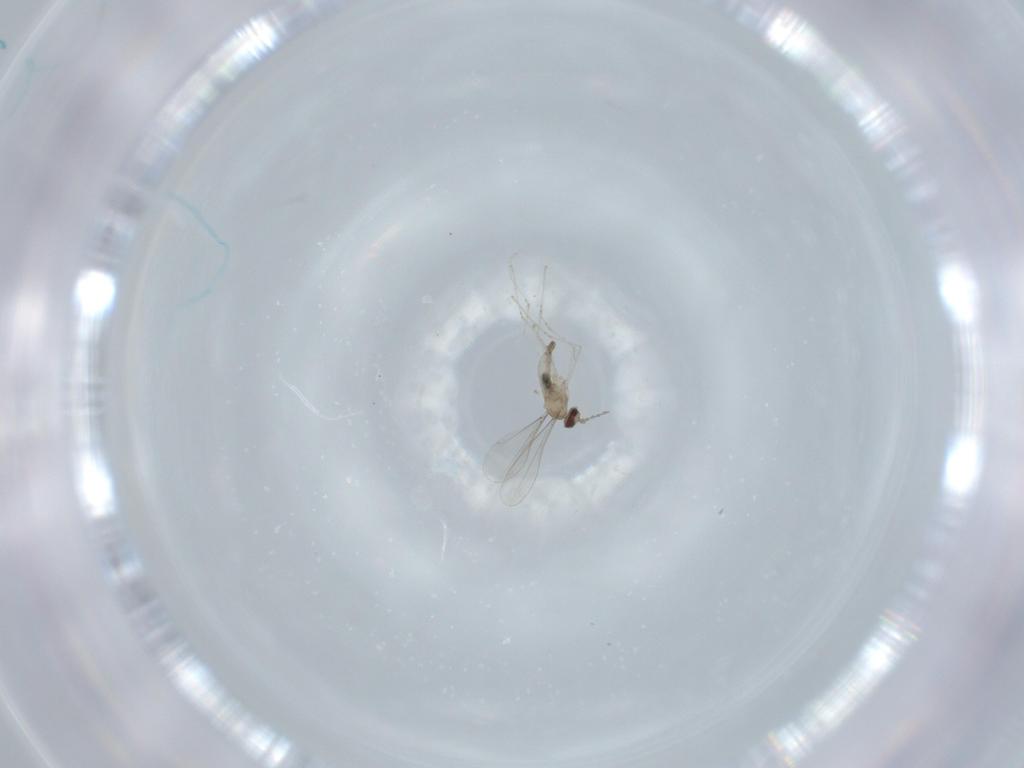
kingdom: Animalia
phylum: Arthropoda
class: Insecta
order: Diptera
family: Cecidomyiidae
